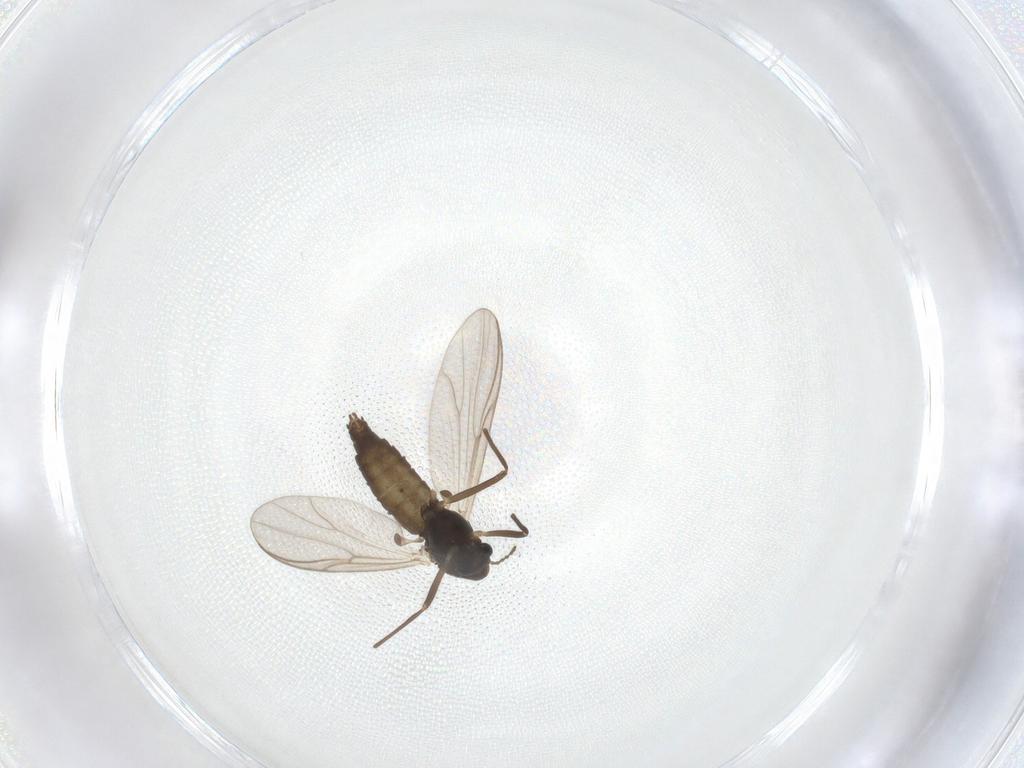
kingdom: Animalia
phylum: Arthropoda
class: Insecta
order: Diptera
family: Chironomidae
